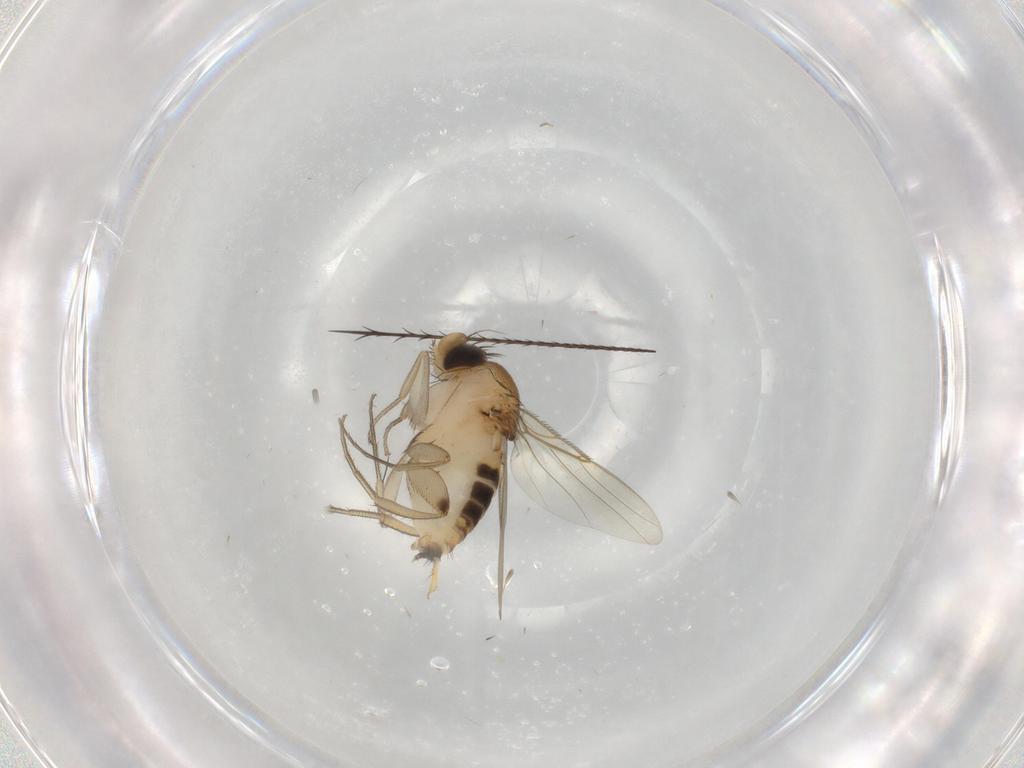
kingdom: Animalia
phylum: Arthropoda
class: Insecta
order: Diptera
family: Phoridae
